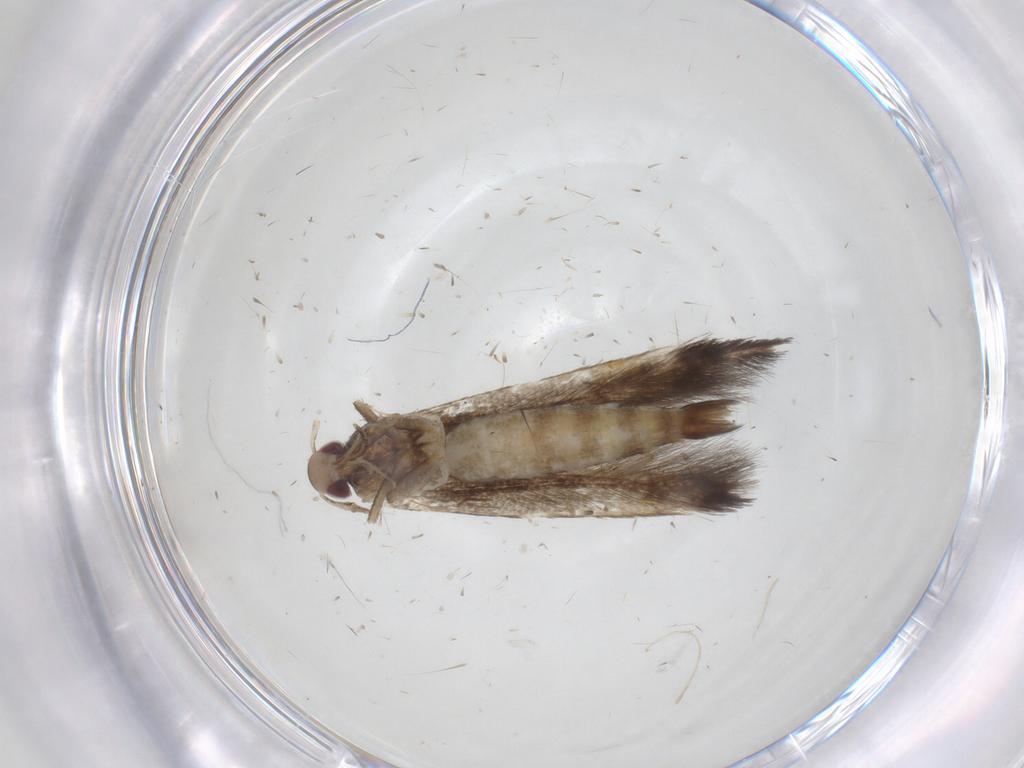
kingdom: Animalia
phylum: Arthropoda
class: Insecta
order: Lepidoptera
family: Cosmopterigidae
